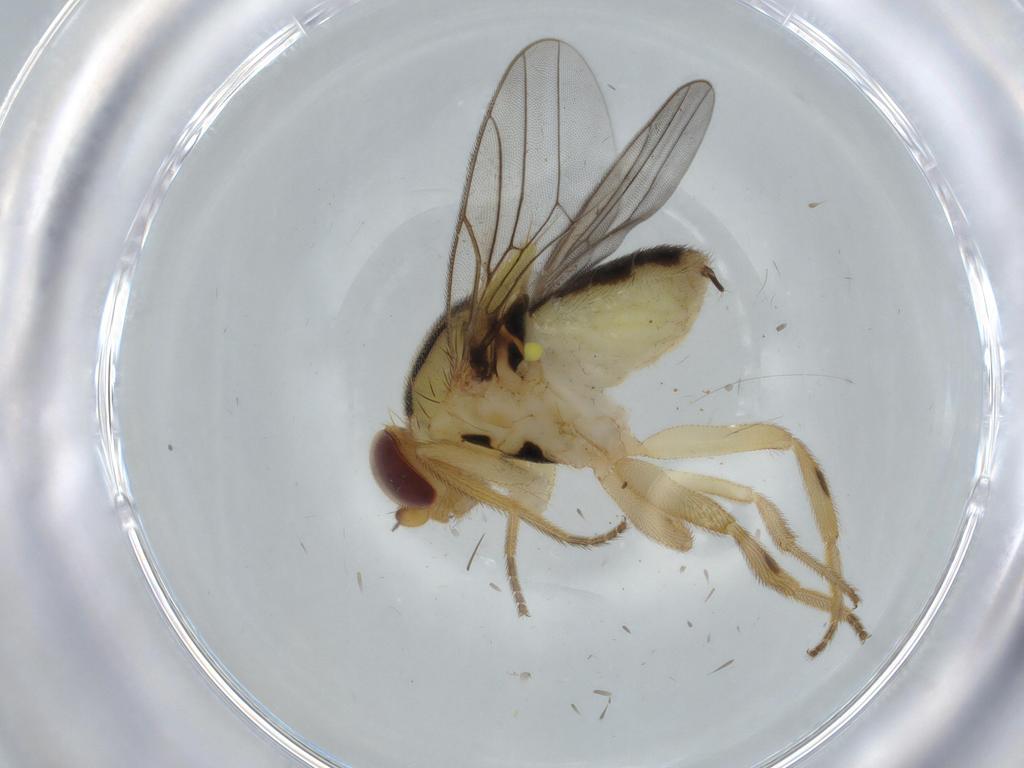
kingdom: Animalia
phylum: Arthropoda
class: Insecta
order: Diptera
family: Chloropidae
